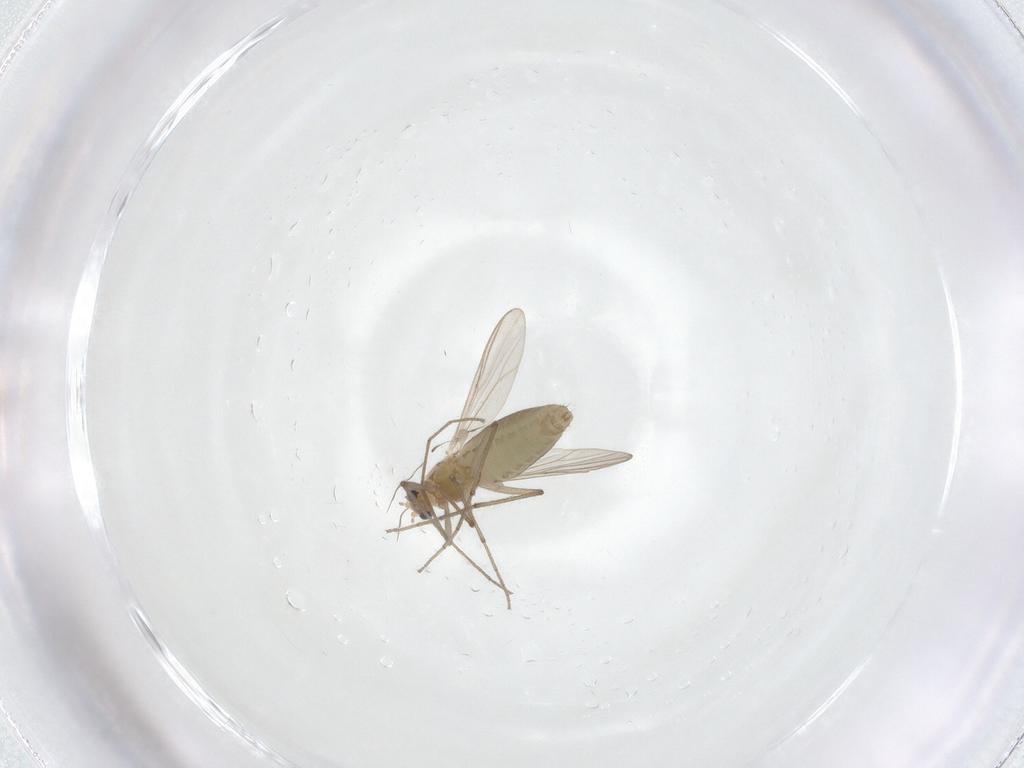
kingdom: Animalia
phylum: Arthropoda
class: Insecta
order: Diptera
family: Chironomidae
